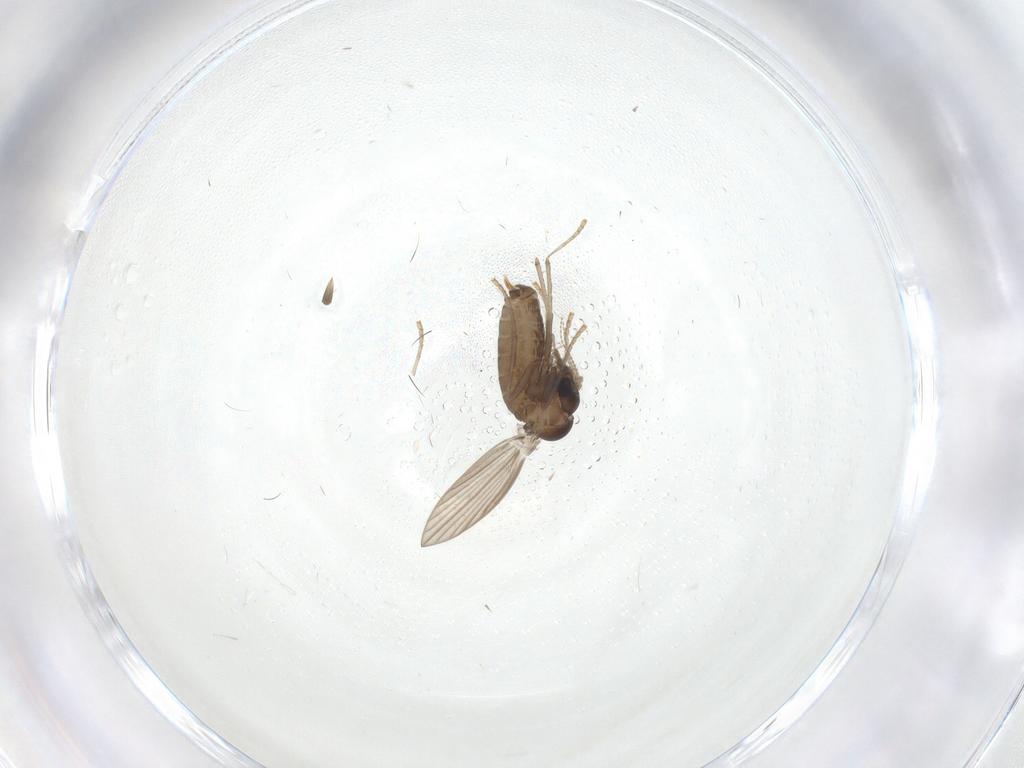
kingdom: Animalia
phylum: Arthropoda
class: Insecta
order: Diptera
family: Psychodidae
